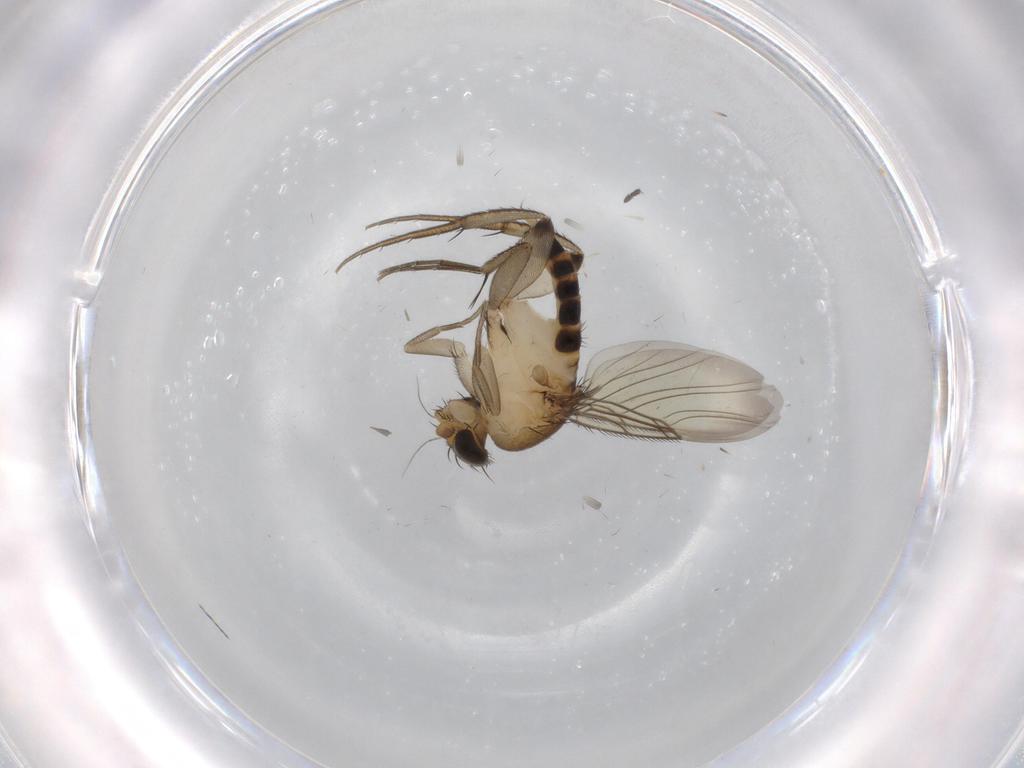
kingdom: Animalia
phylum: Arthropoda
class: Insecta
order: Diptera
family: Phoridae
